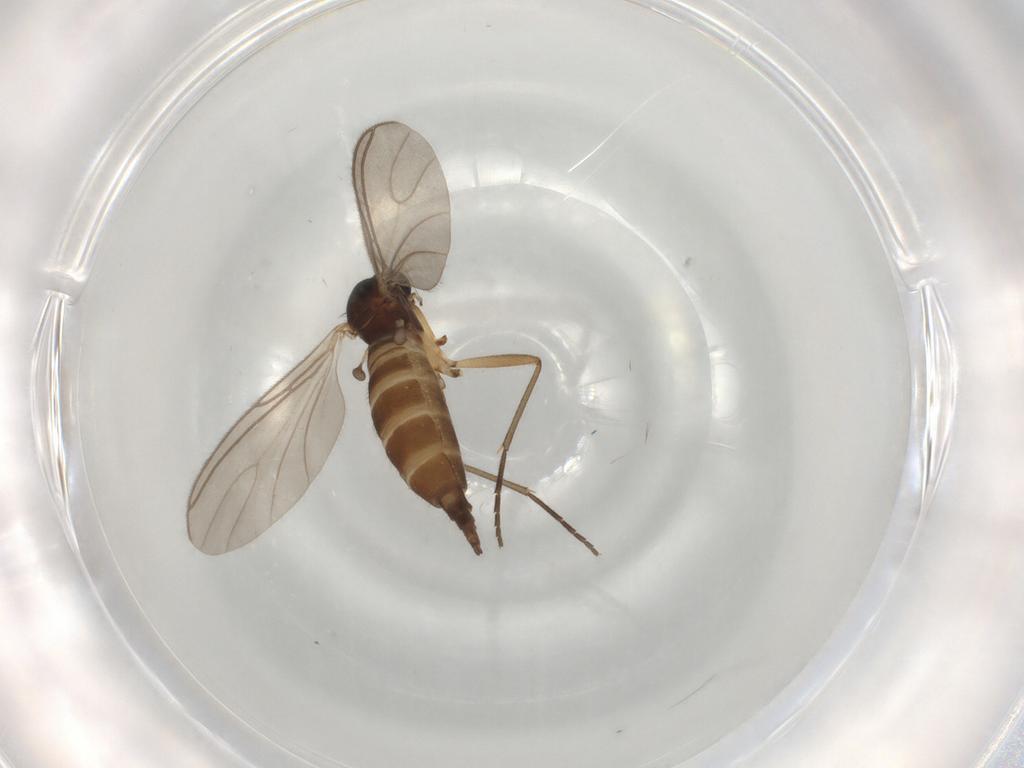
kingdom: Animalia
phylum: Arthropoda
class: Insecta
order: Diptera
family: Sciaridae
